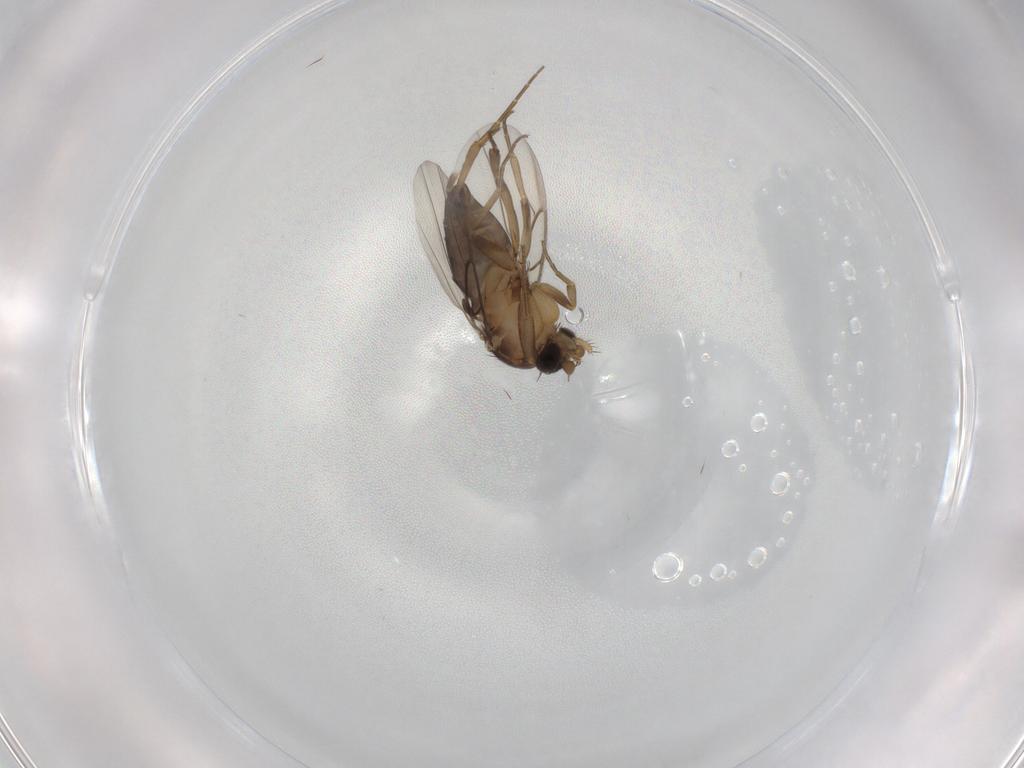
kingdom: Animalia
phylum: Arthropoda
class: Insecta
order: Diptera
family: Phoridae
